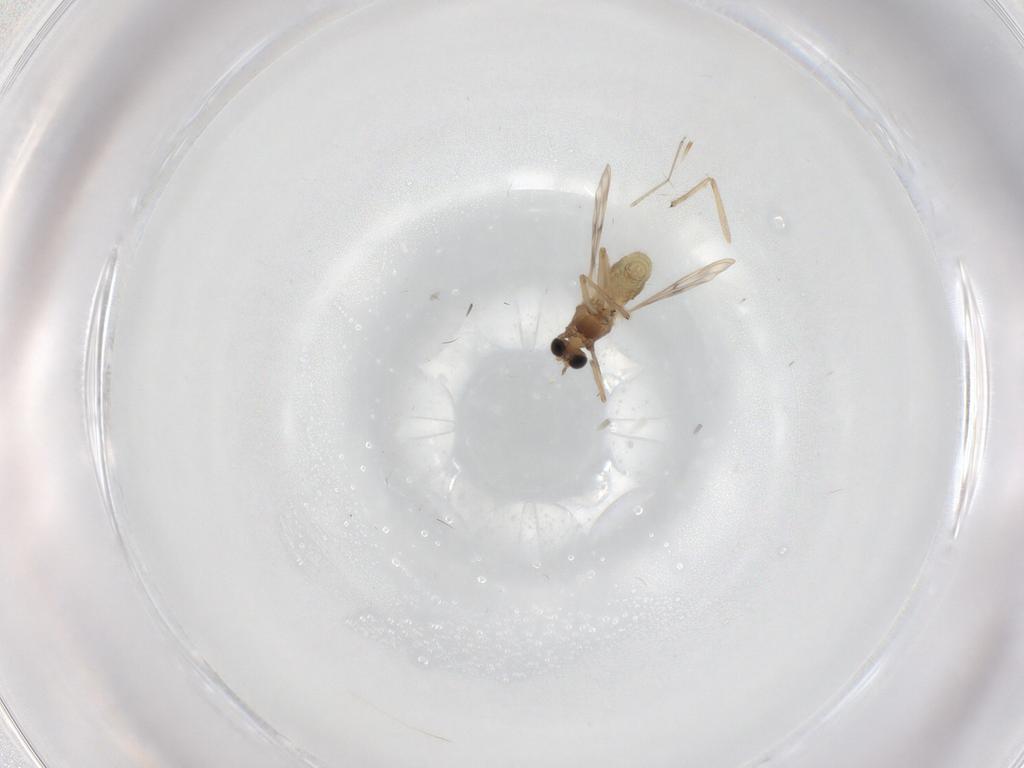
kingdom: Animalia
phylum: Arthropoda
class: Insecta
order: Diptera
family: Chironomidae
